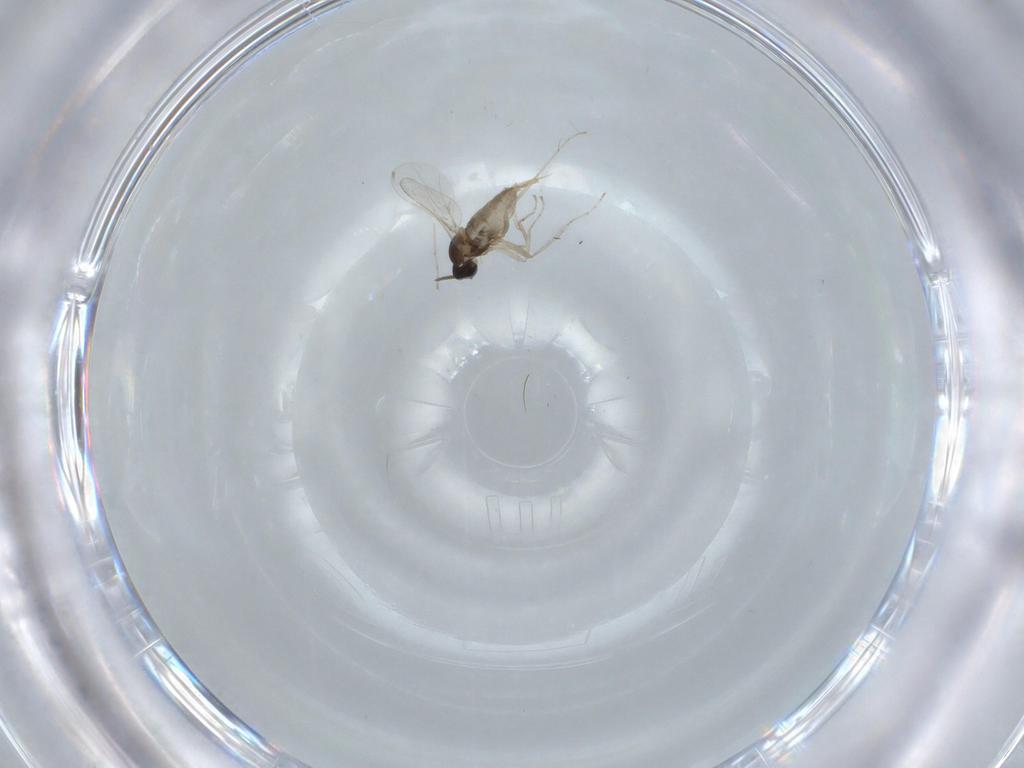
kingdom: Animalia
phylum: Arthropoda
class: Insecta
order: Diptera
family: Cecidomyiidae
